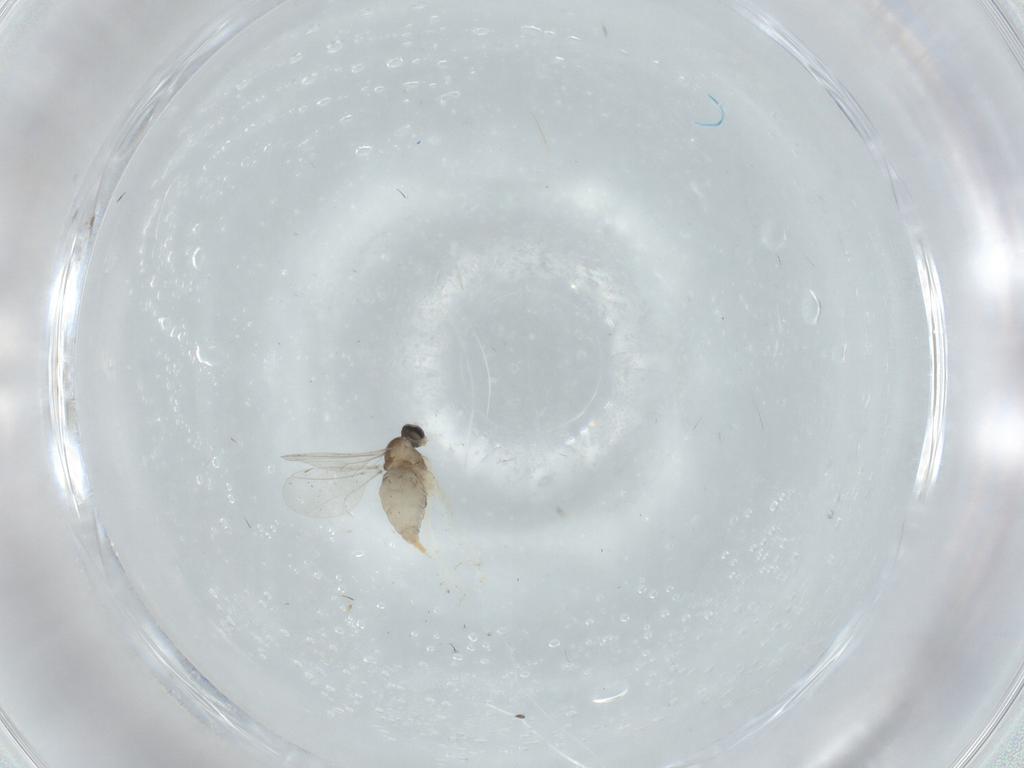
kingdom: Animalia
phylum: Arthropoda
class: Insecta
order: Diptera
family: Cecidomyiidae
